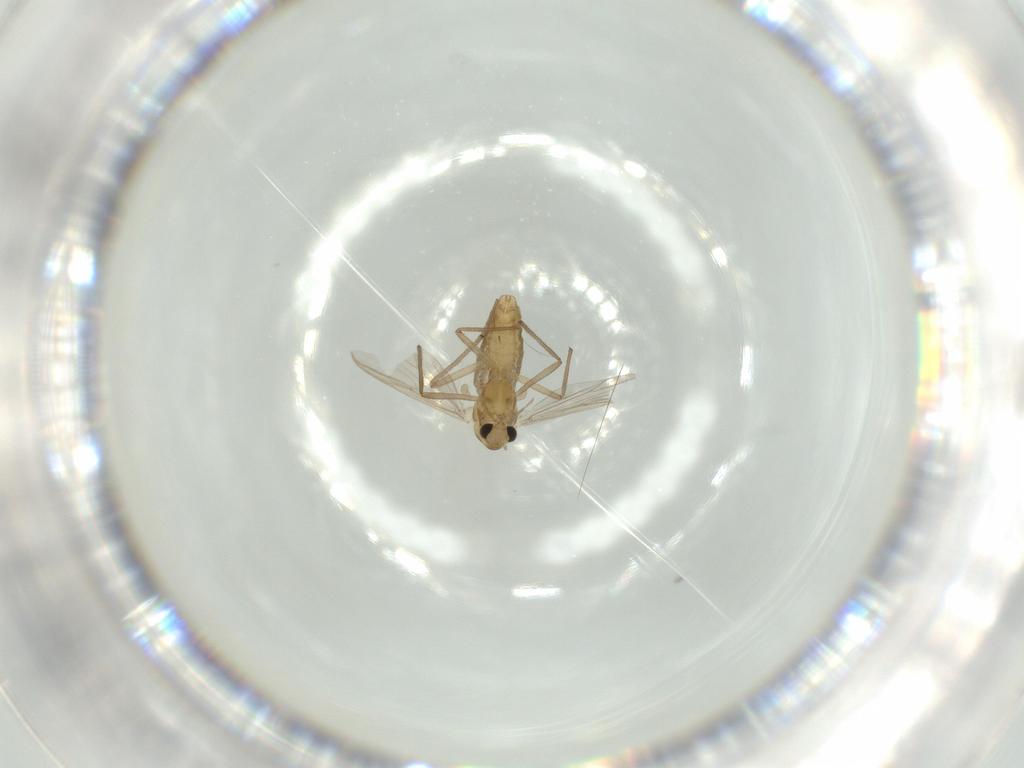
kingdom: Animalia
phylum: Arthropoda
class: Insecta
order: Diptera
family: Chironomidae
